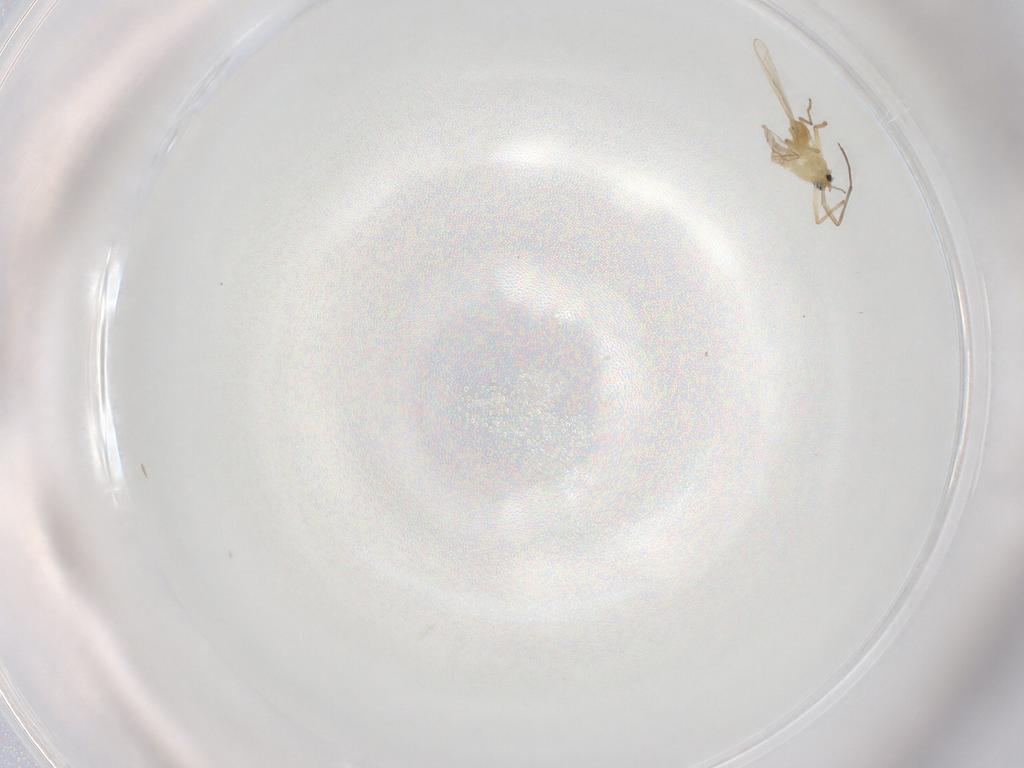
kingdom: Animalia
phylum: Arthropoda
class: Insecta
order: Diptera
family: Chironomidae
